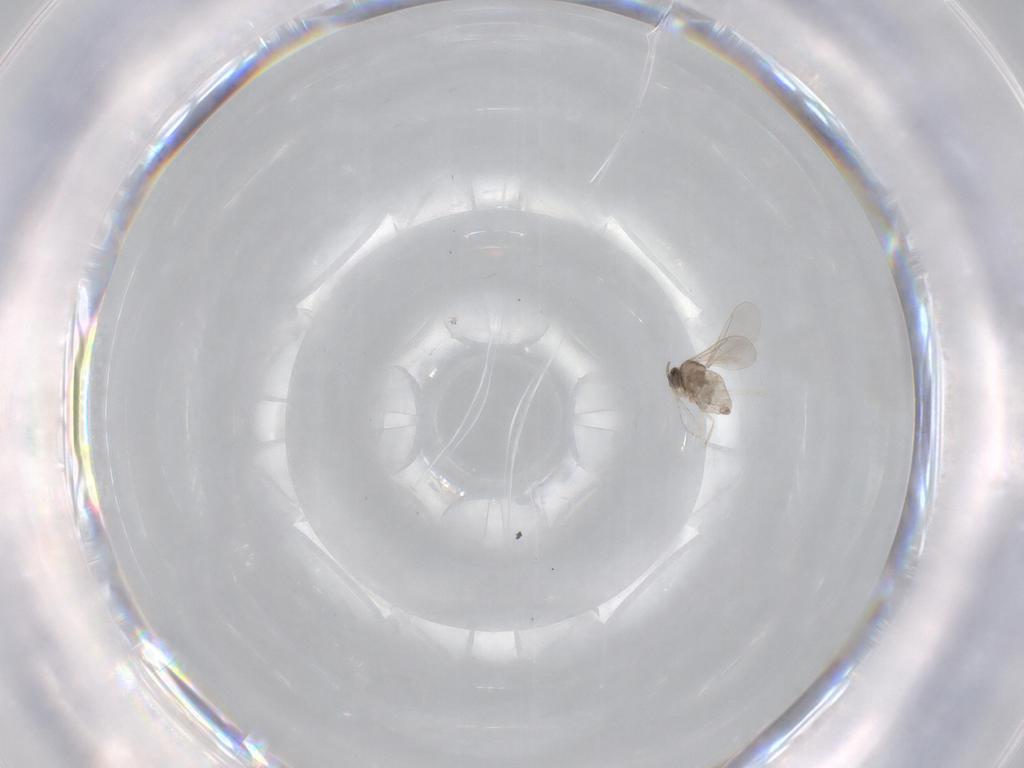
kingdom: Animalia
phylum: Arthropoda
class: Insecta
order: Diptera
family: Cecidomyiidae
